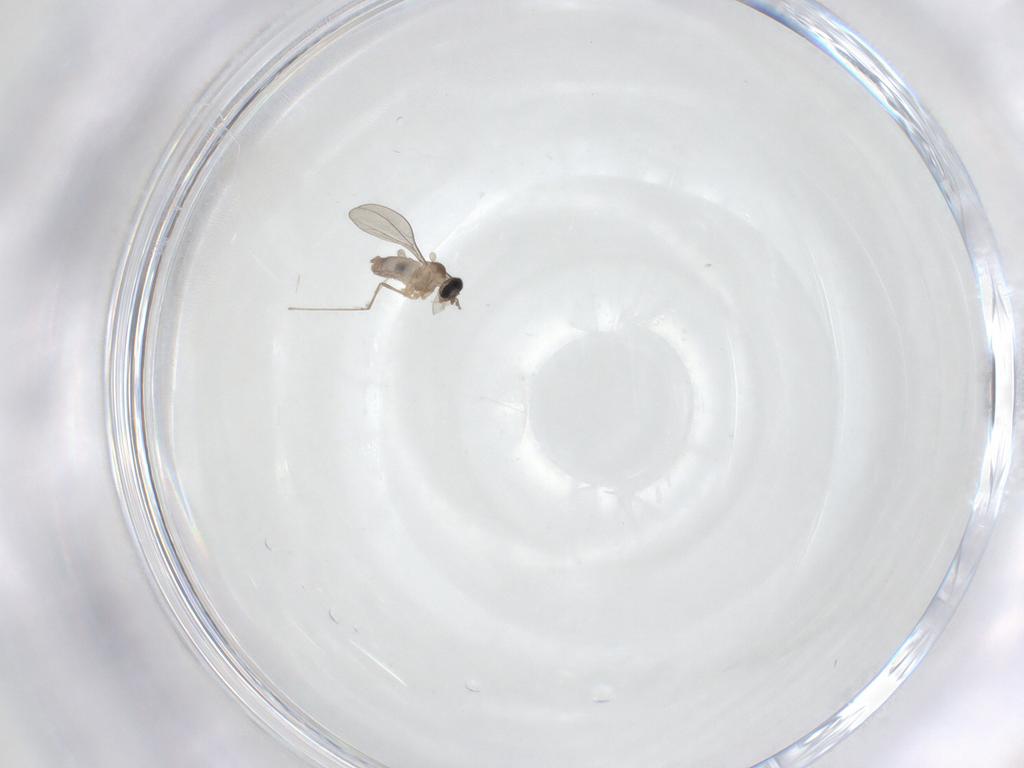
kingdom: Animalia
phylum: Arthropoda
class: Insecta
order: Diptera
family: Cecidomyiidae
